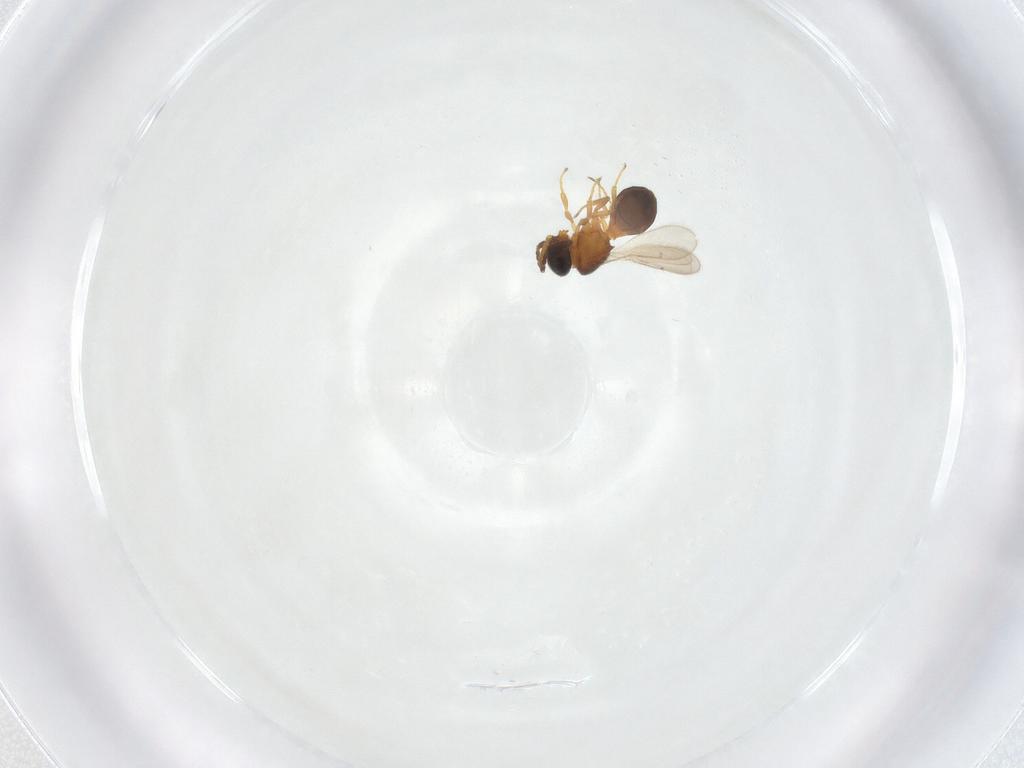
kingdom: Animalia
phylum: Arthropoda
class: Insecta
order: Hymenoptera
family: Scelionidae
